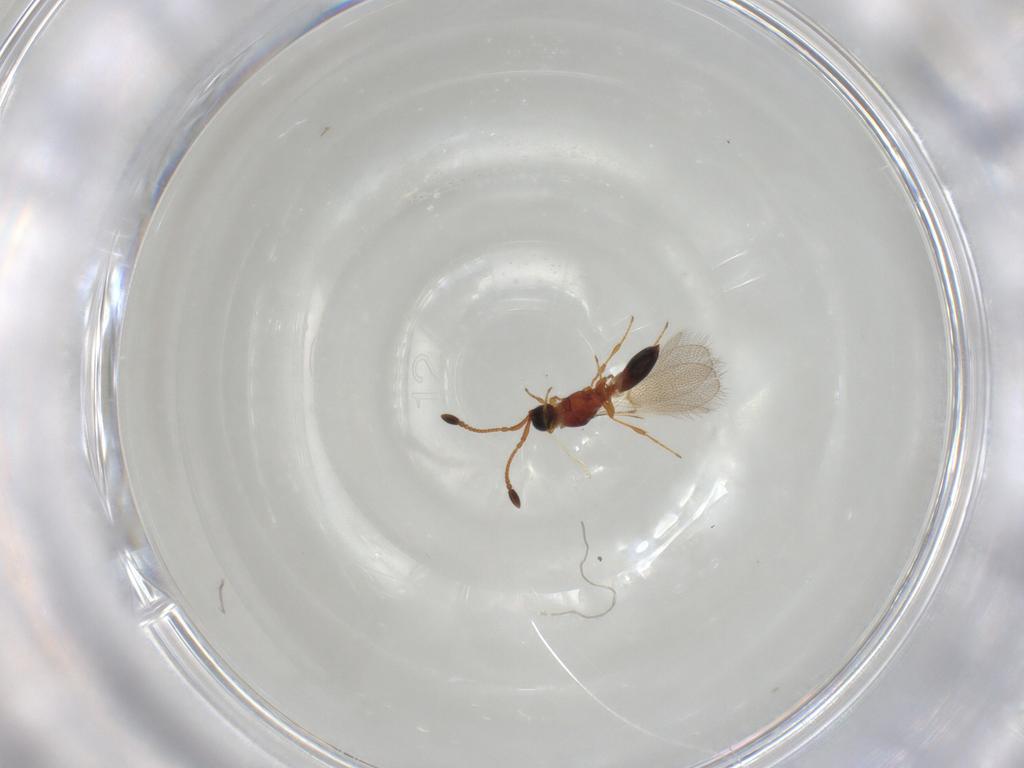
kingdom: Animalia
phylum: Arthropoda
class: Insecta
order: Hymenoptera
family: Diapriidae
